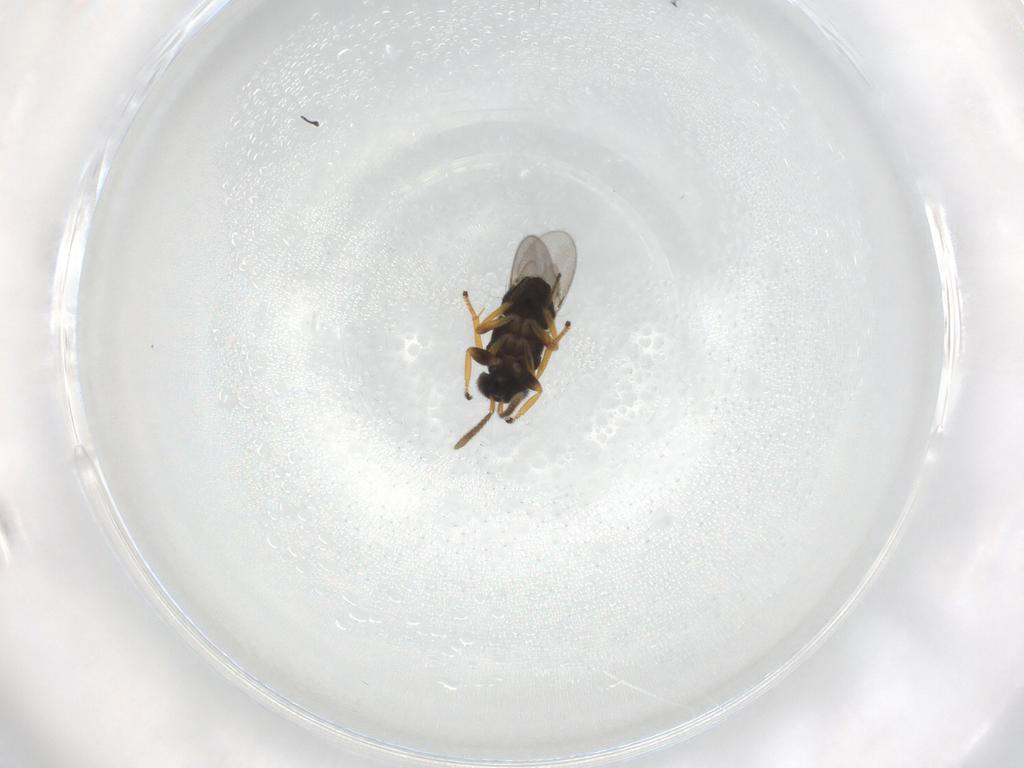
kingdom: Animalia
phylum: Arthropoda
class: Insecta
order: Hymenoptera
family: Encyrtidae
